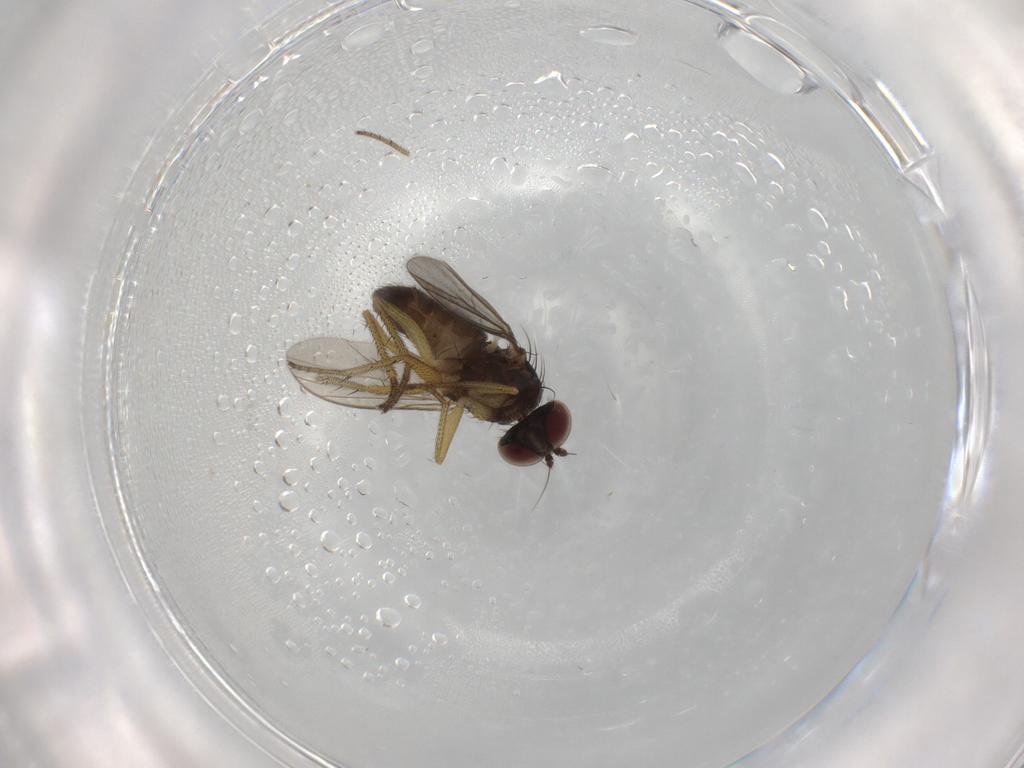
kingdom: Animalia
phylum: Arthropoda
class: Insecta
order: Diptera
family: Dolichopodidae
